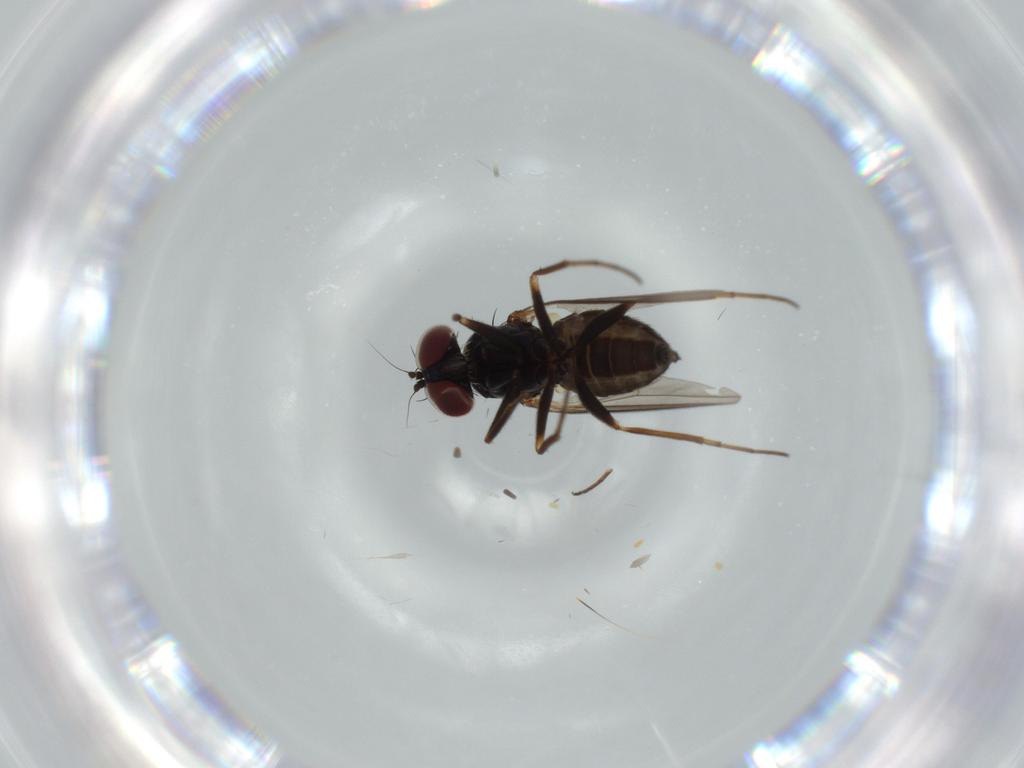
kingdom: Animalia
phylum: Arthropoda
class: Insecta
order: Diptera
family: Dolichopodidae
